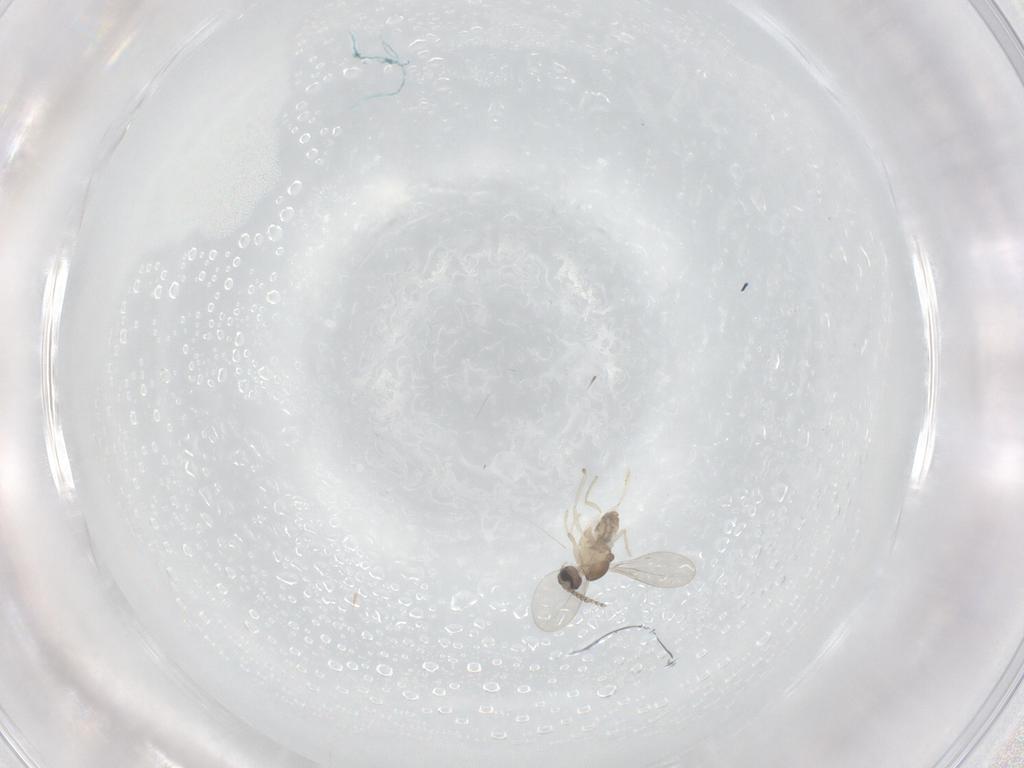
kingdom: Animalia
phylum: Arthropoda
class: Insecta
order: Diptera
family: Cecidomyiidae
